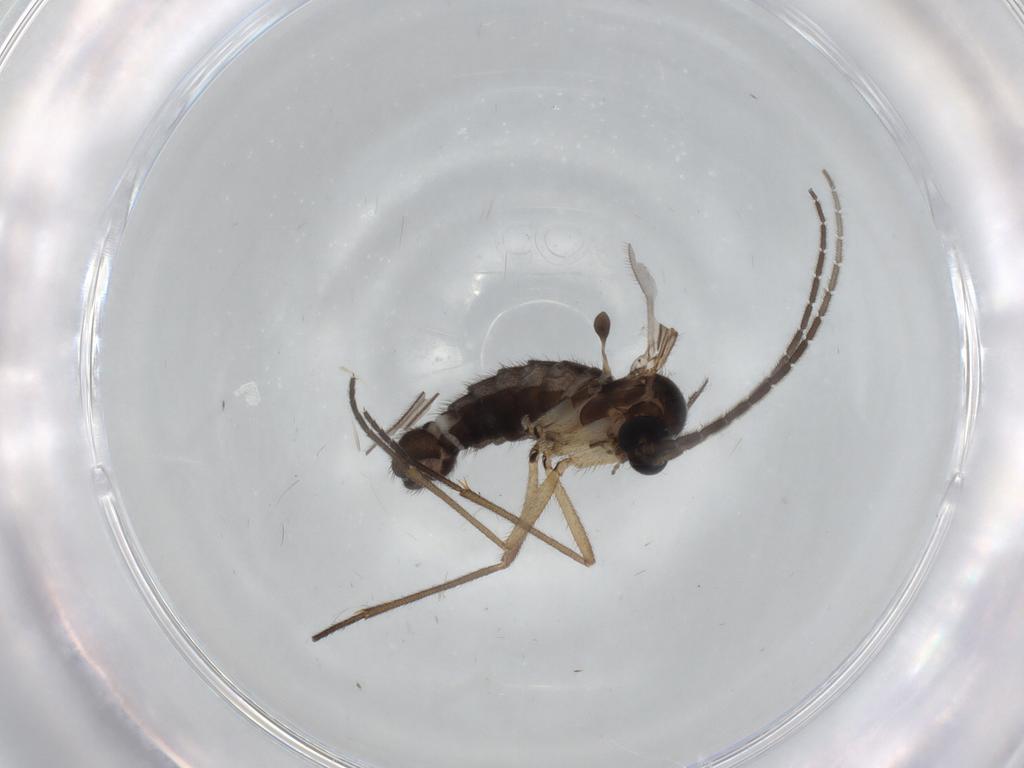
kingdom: Animalia
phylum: Arthropoda
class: Insecta
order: Diptera
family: Sciaridae
